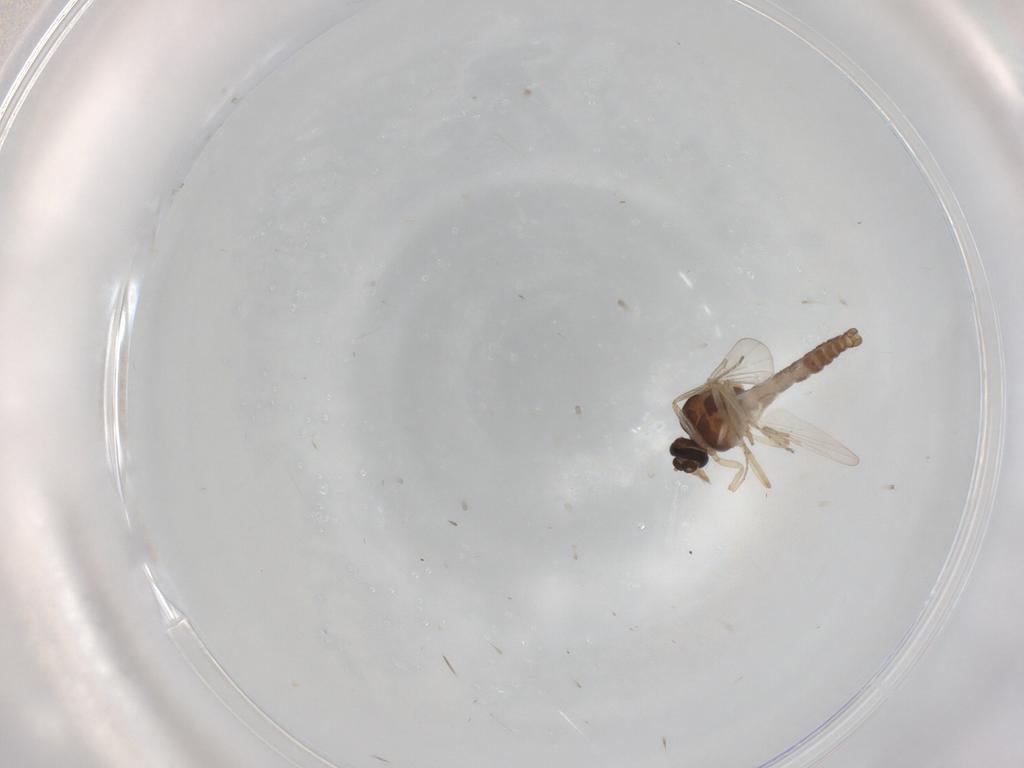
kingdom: Animalia
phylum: Arthropoda
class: Insecta
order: Diptera
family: Ceratopogonidae
